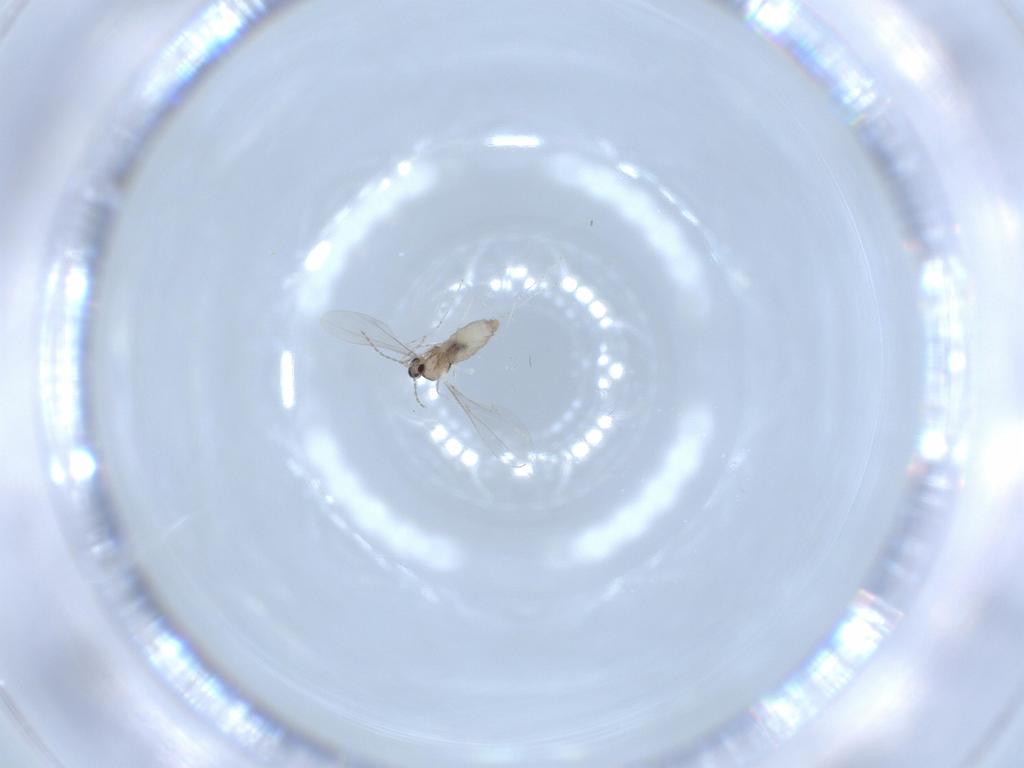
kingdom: Animalia
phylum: Arthropoda
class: Insecta
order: Diptera
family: Cecidomyiidae
